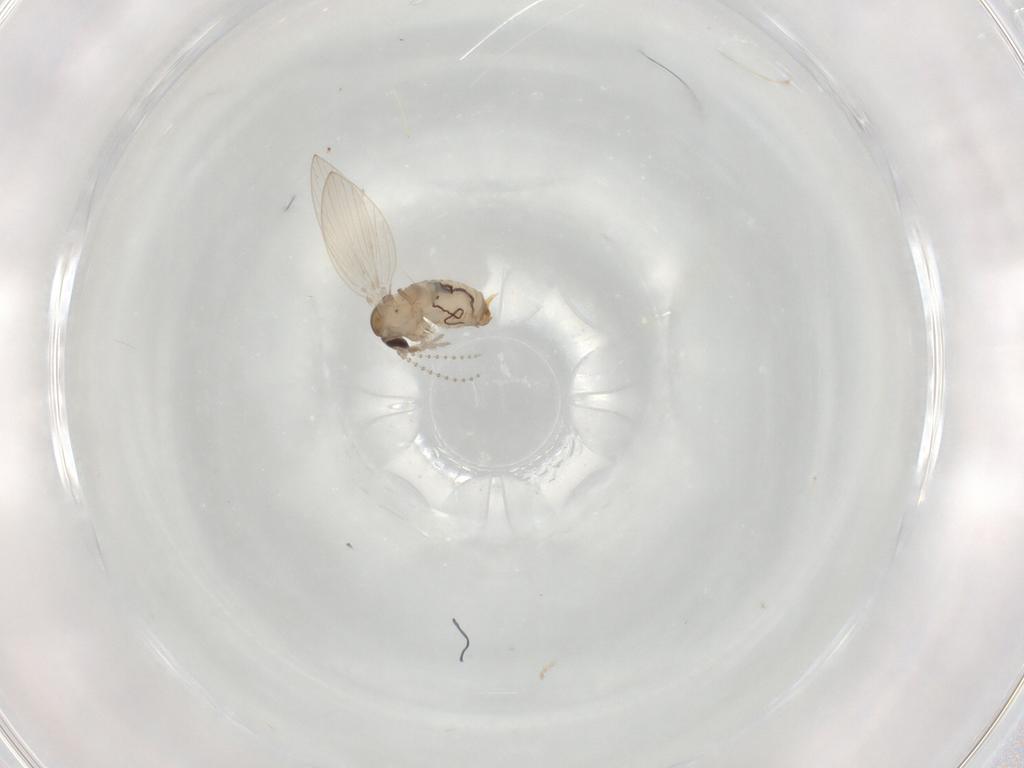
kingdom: Animalia
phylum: Arthropoda
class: Insecta
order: Diptera
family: Psychodidae
